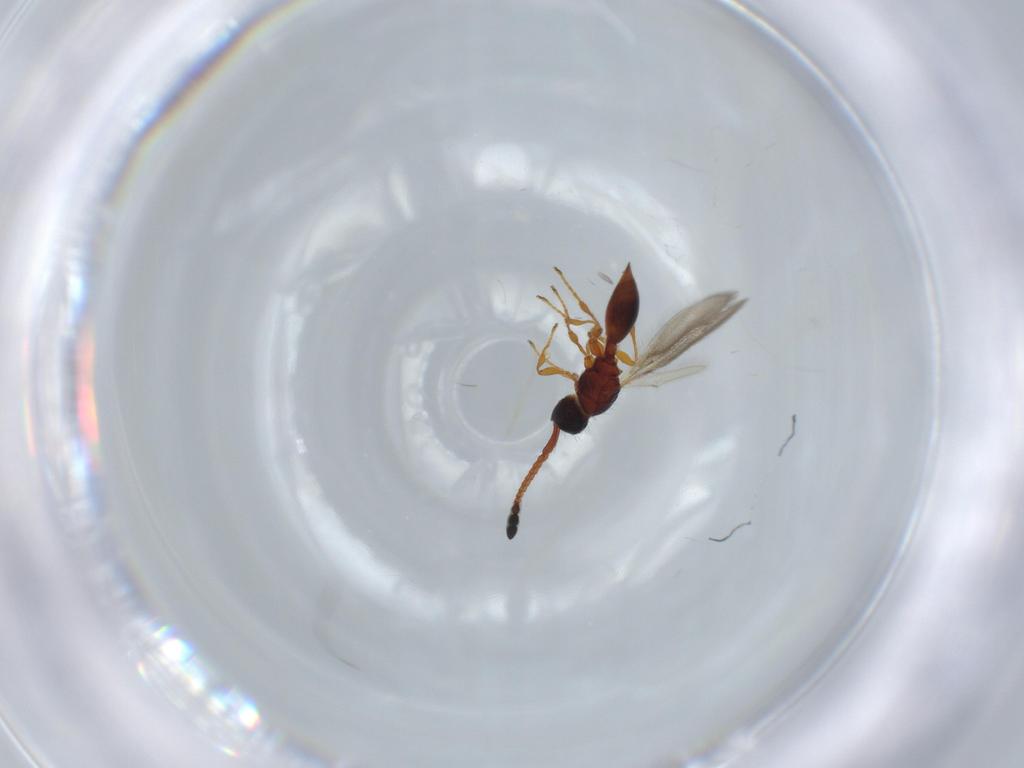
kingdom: Animalia
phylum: Arthropoda
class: Insecta
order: Hymenoptera
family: Diapriidae
